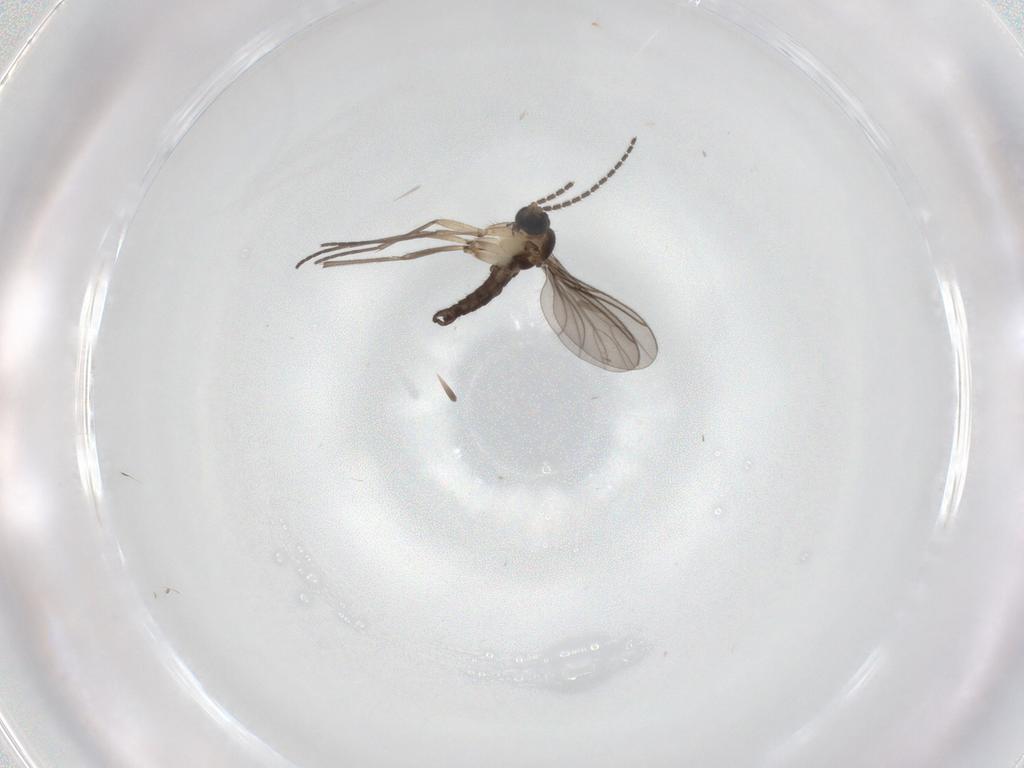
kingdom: Animalia
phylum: Arthropoda
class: Insecta
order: Diptera
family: Sciaridae
